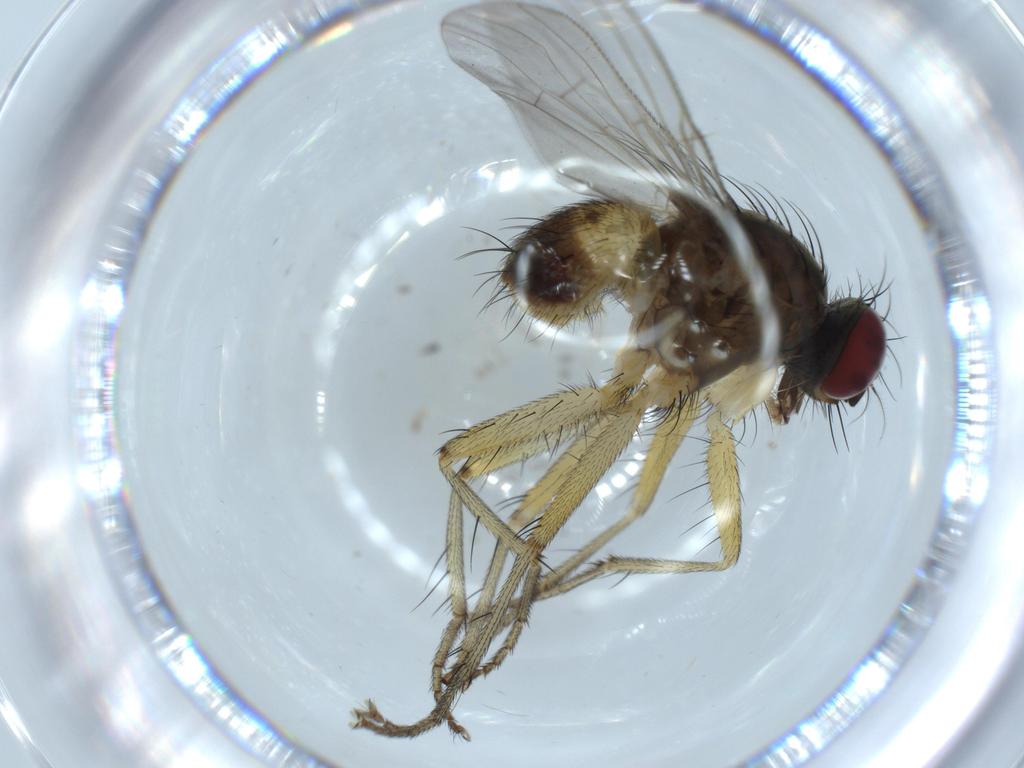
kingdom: Animalia
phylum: Arthropoda
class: Insecta
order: Diptera
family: Muscidae
